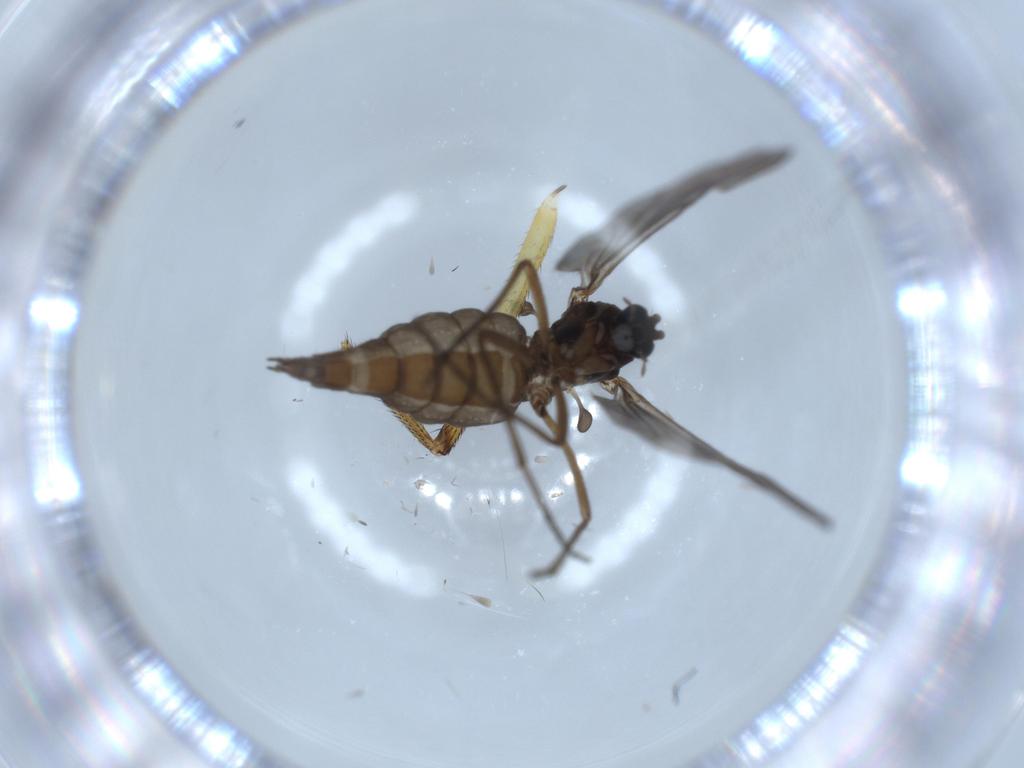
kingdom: Animalia
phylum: Arthropoda
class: Insecta
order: Diptera
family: Cecidomyiidae
